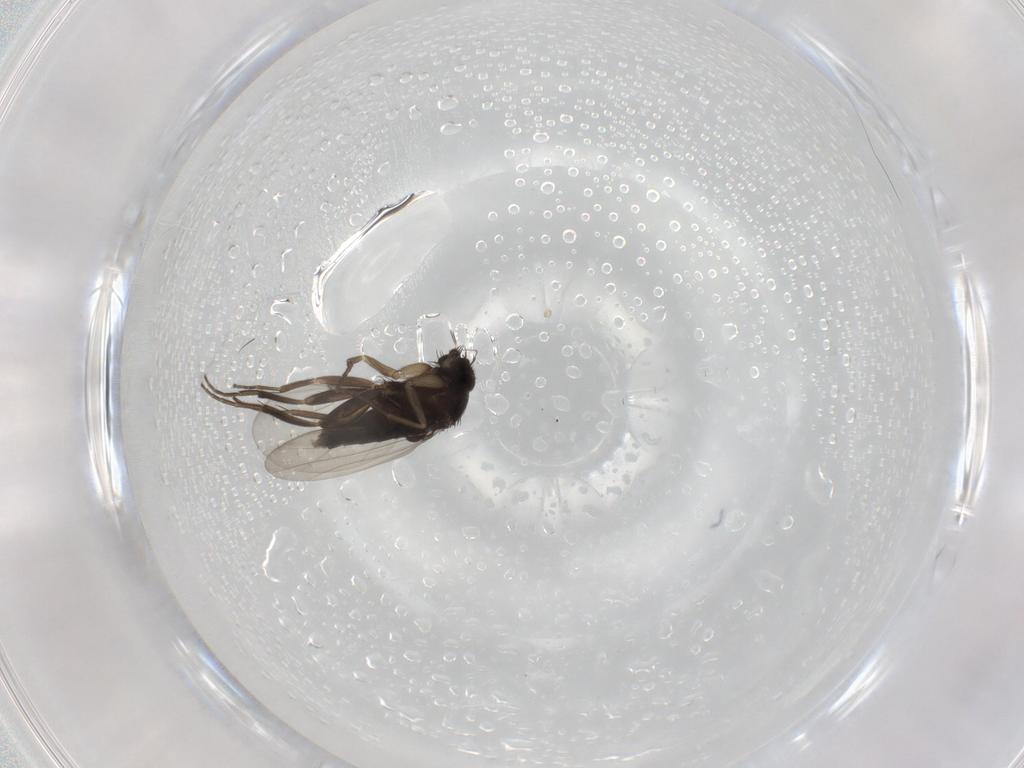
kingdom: Animalia
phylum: Arthropoda
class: Insecta
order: Diptera
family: Phoridae
